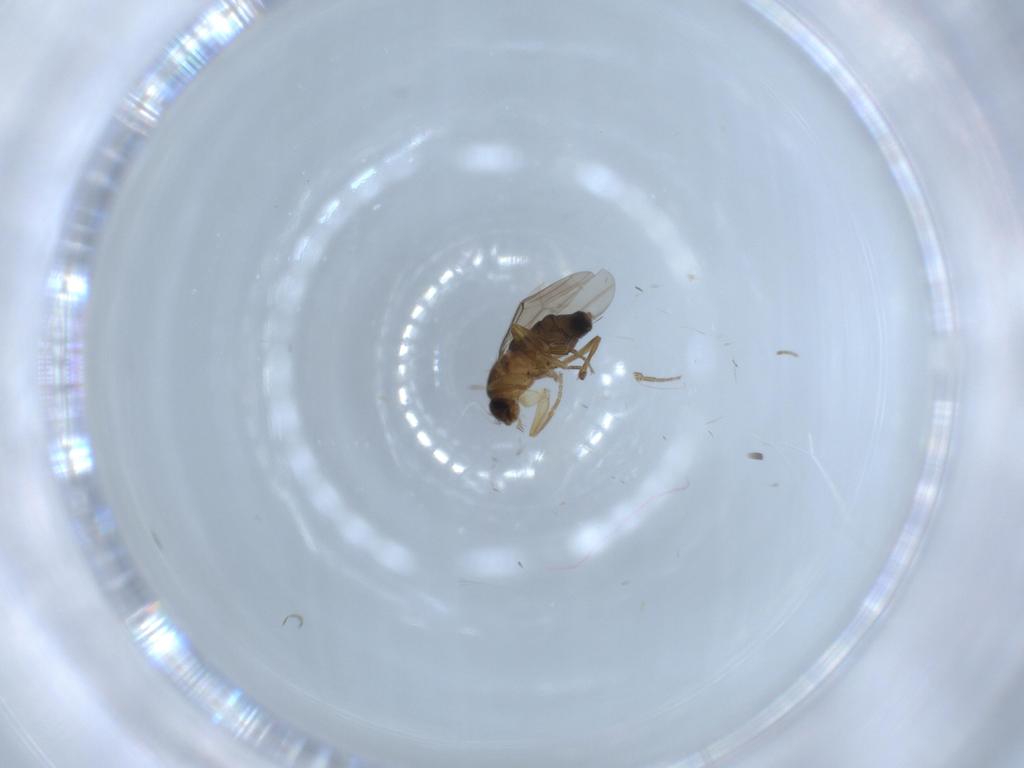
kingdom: Animalia
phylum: Arthropoda
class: Insecta
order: Diptera
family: Phoridae
